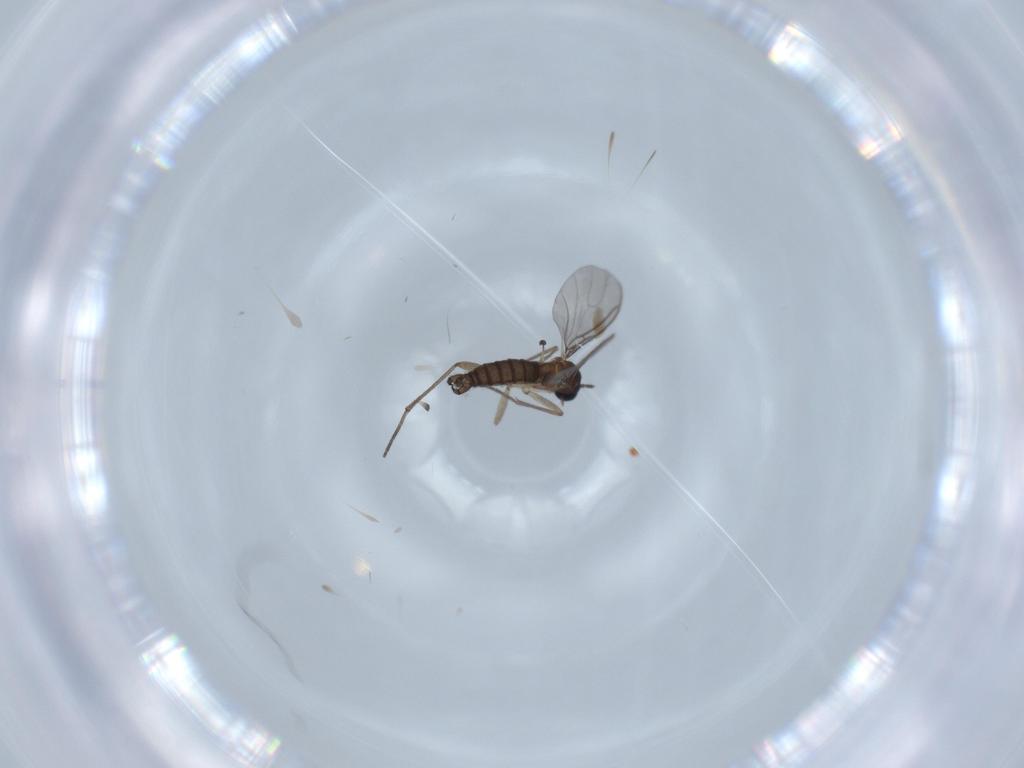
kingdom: Animalia
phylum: Arthropoda
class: Insecta
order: Diptera
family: Sciaridae
